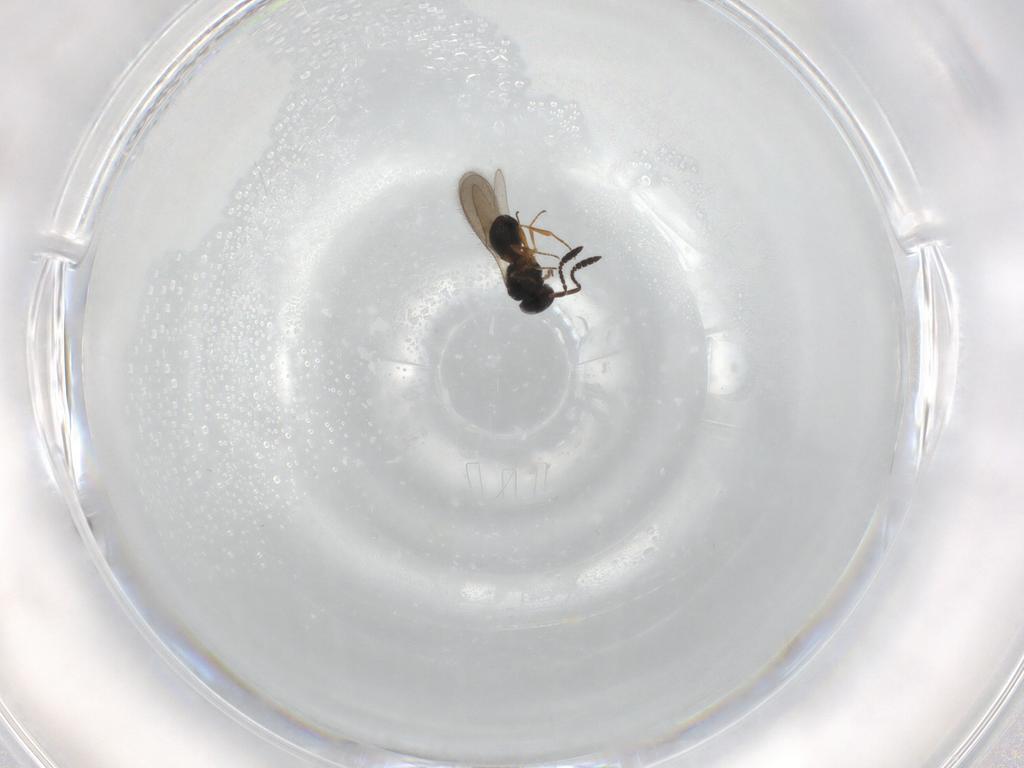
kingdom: Animalia
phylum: Arthropoda
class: Insecta
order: Hymenoptera
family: Scelionidae
